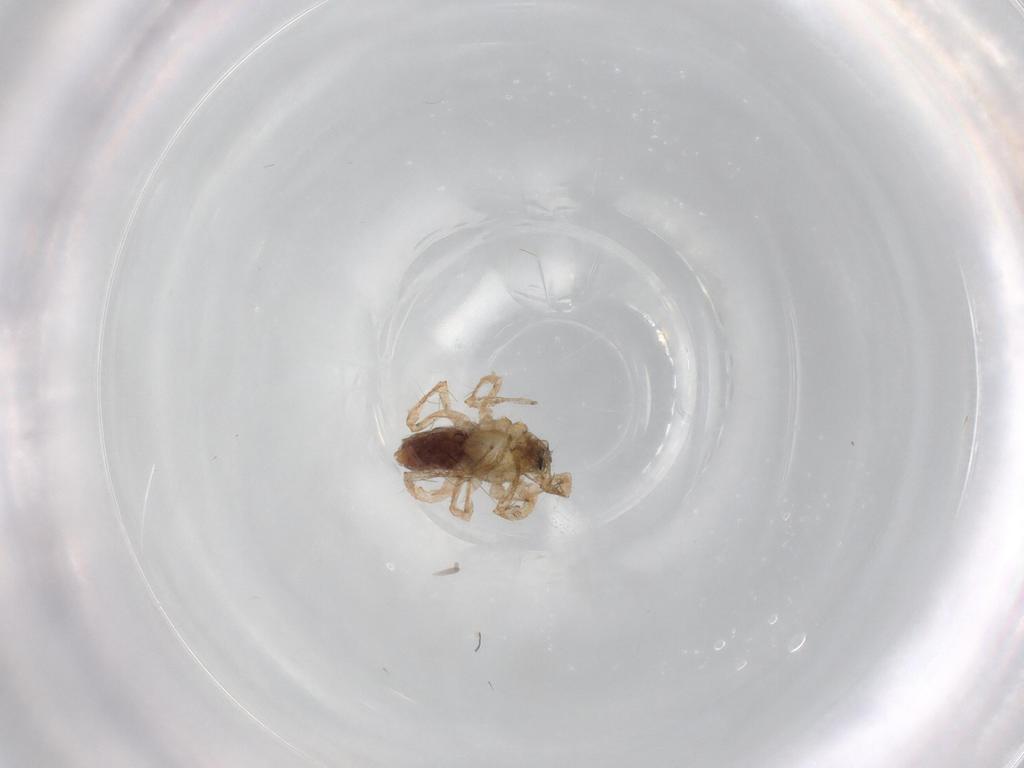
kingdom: Animalia
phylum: Arthropoda
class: Arachnida
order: Araneae
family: Anyphaenidae
